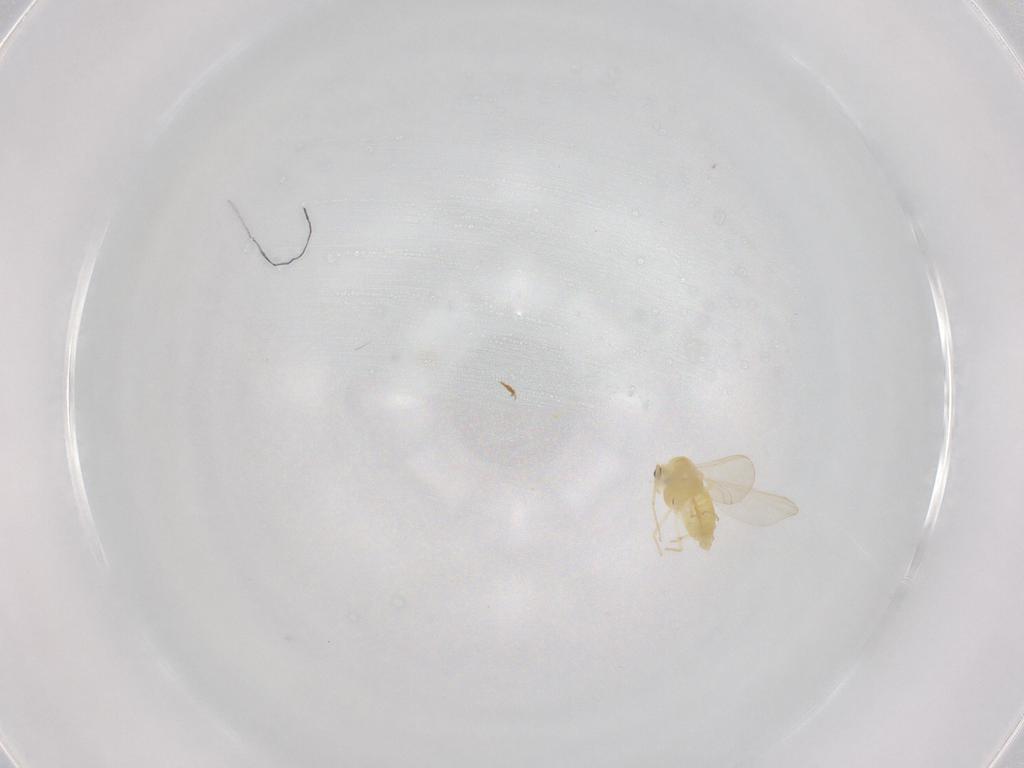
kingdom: Animalia
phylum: Arthropoda
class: Insecta
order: Diptera
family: Chironomidae
